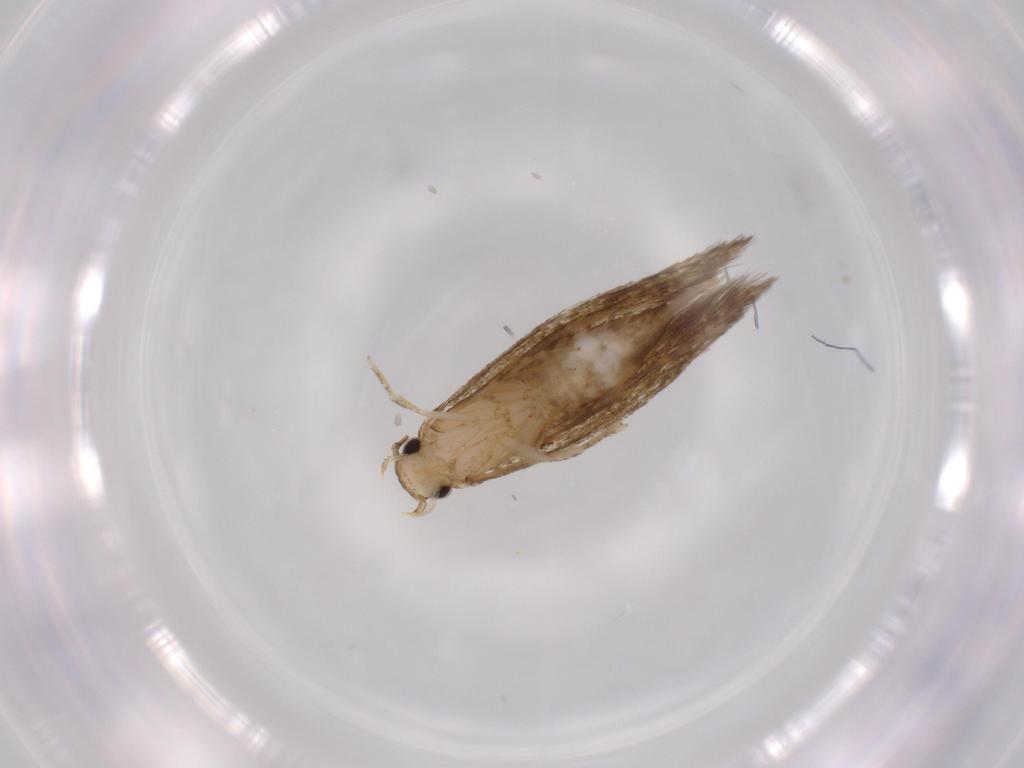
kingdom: Animalia
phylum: Arthropoda
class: Insecta
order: Lepidoptera
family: Tineidae
